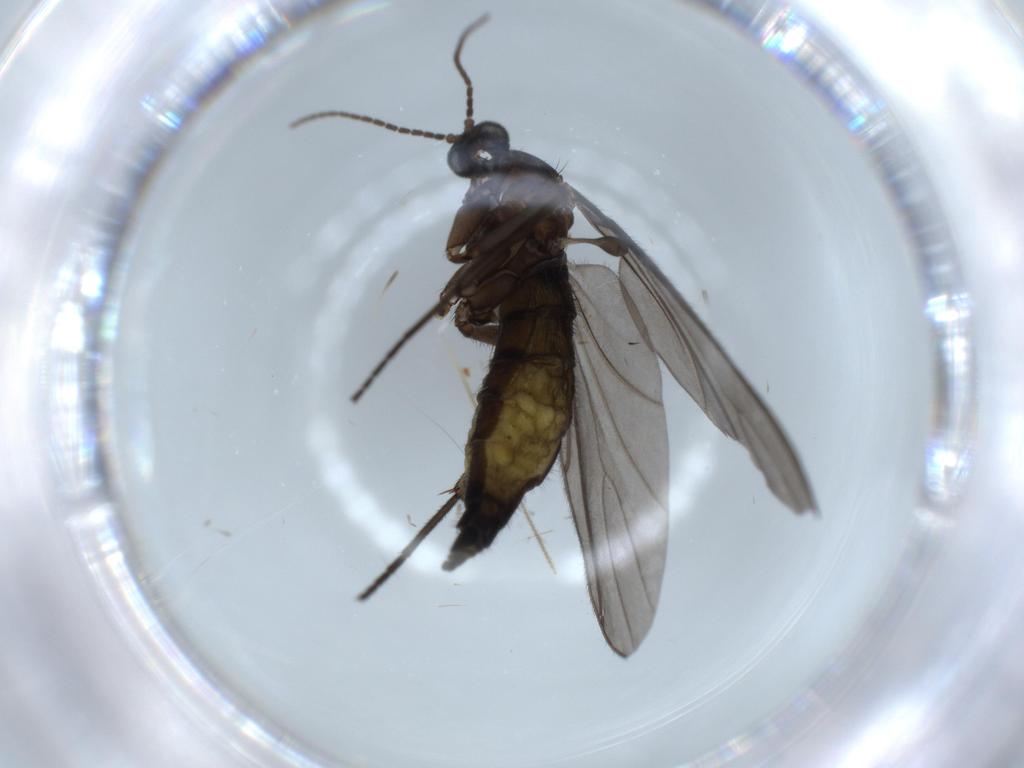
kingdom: Animalia
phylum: Arthropoda
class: Insecta
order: Diptera
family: Sciaridae
